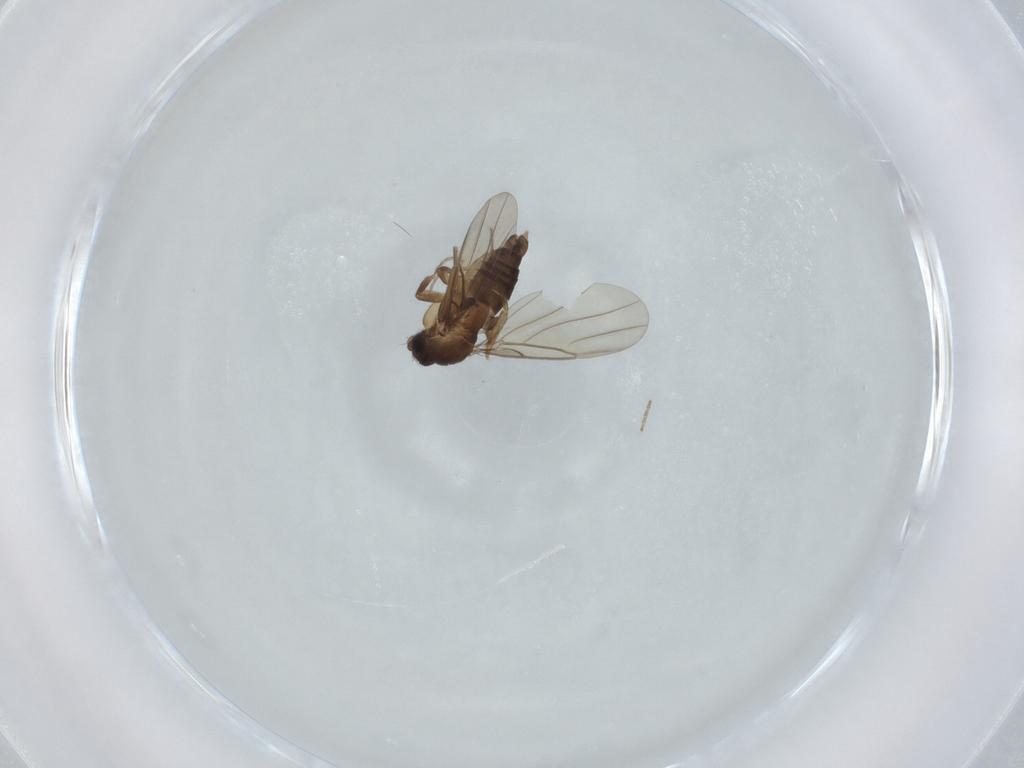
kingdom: Animalia
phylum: Arthropoda
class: Insecta
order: Diptera
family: Phoridae
